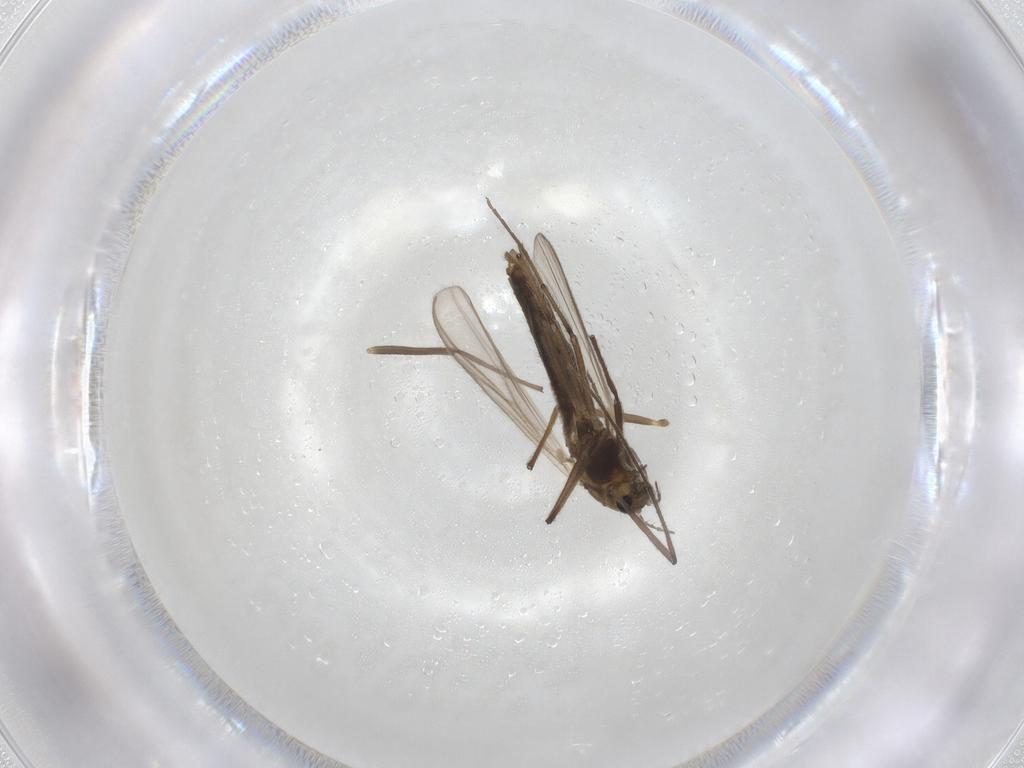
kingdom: Animalia
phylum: Arthropoda
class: Insecta
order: Diptera
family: Chironomidae
